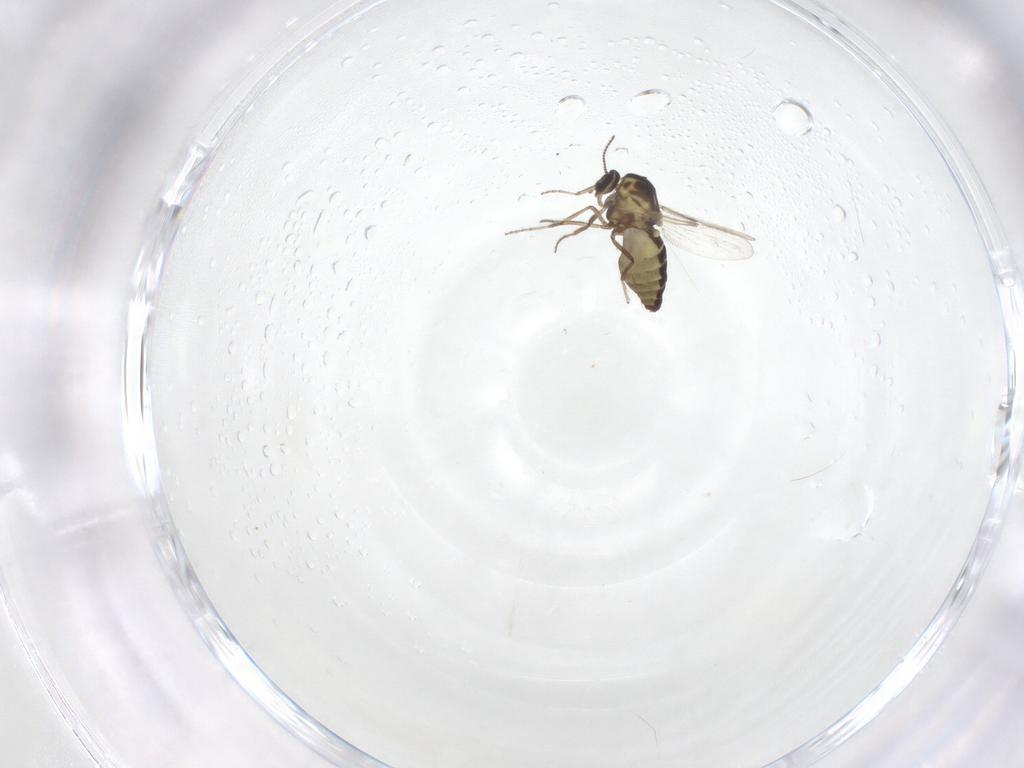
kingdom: Animalia
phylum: Arthropoda
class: Insecta
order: Diptera
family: Ceratopogonidae
